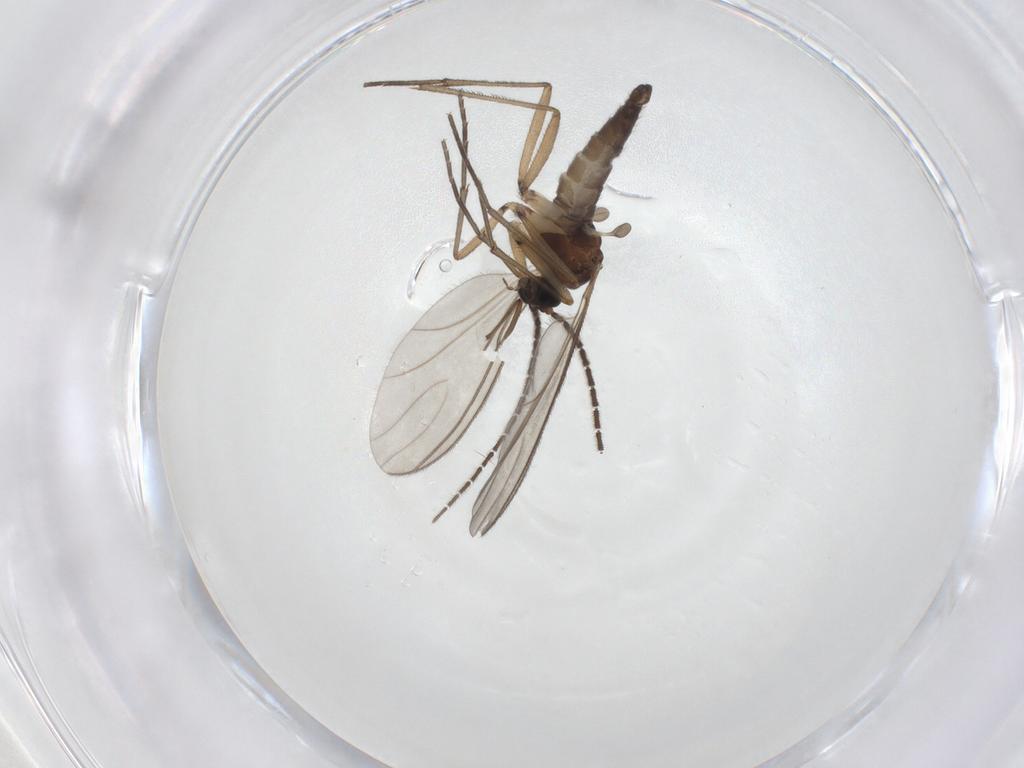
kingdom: Animalia
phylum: Arthropoda
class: Insecta
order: Diptera
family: Sciaridae
